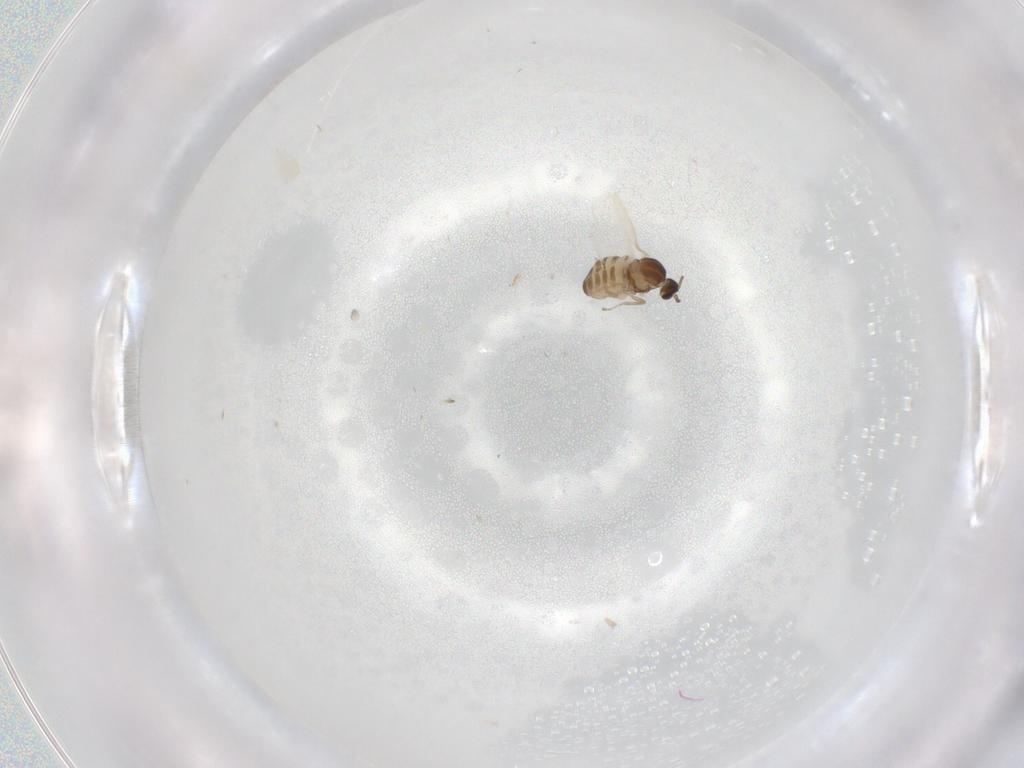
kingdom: Animalia
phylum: Arthropoda
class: Insecta
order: Diptera
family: Cecidomyiidae
